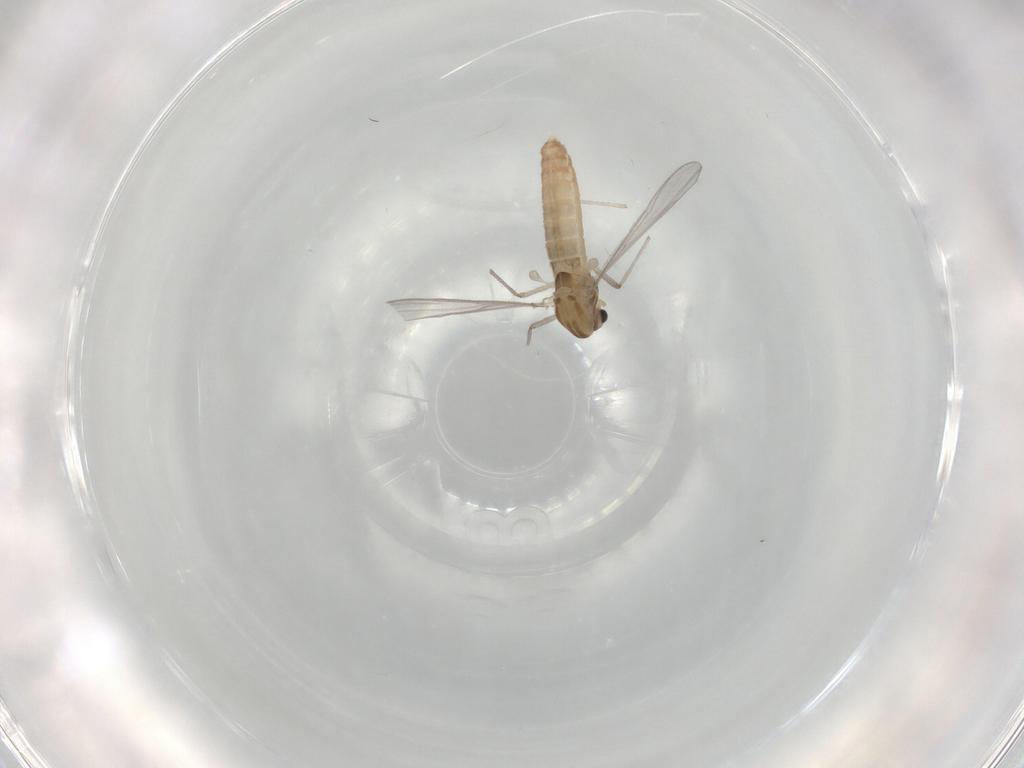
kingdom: Animalia
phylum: Arthropoda
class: Insecta
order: Diptera
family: Chironomidae
